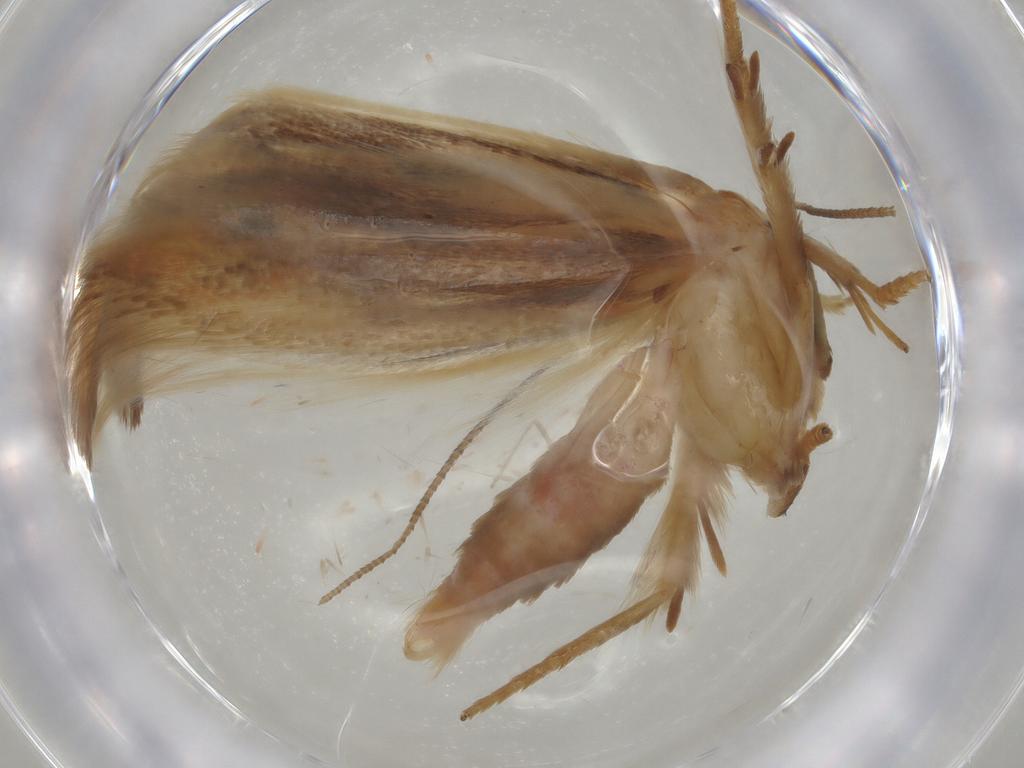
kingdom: Animalia
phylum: Arthropoda
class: Insecta
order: Lepidoptera
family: Geometridae
